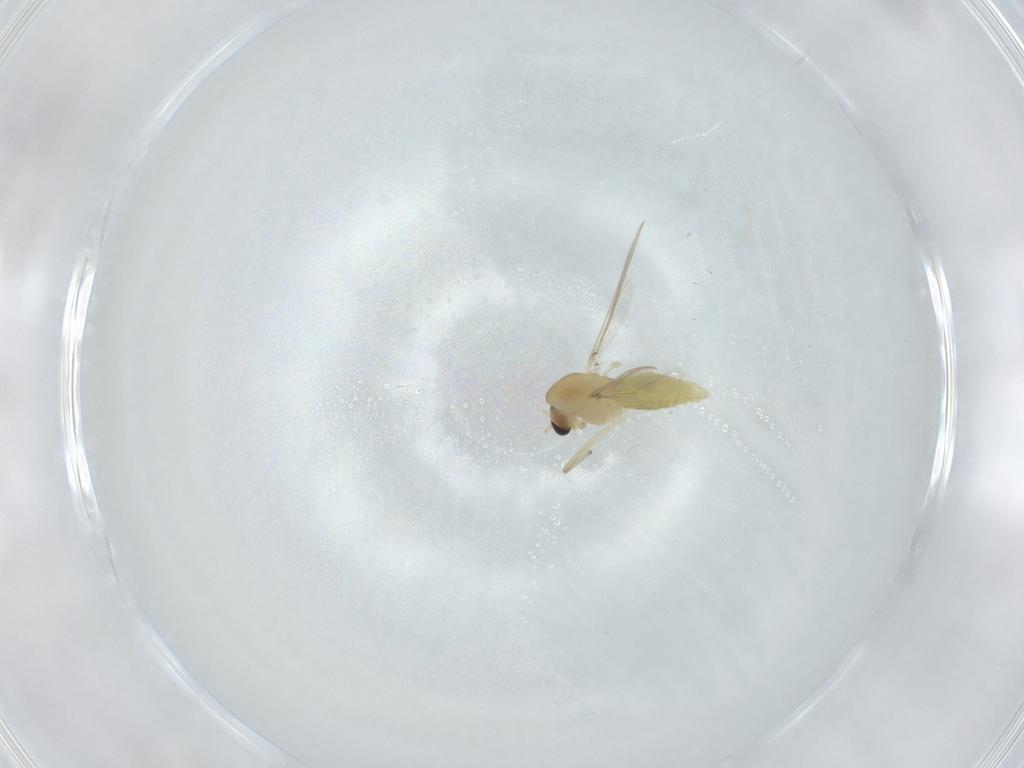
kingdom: Animalia
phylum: Arthropoda
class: Insecta
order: Diptera
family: Chironomidae
